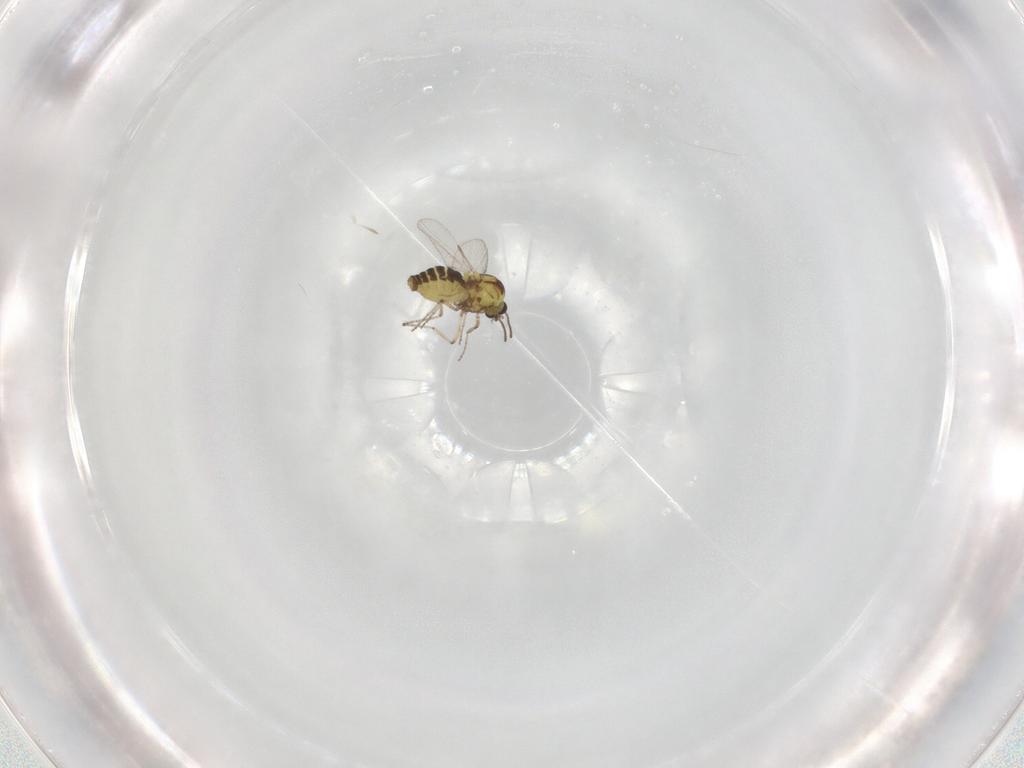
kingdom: Animalia
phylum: Arthropoda
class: Insecta
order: Diptera
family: Ceratopogonidae
